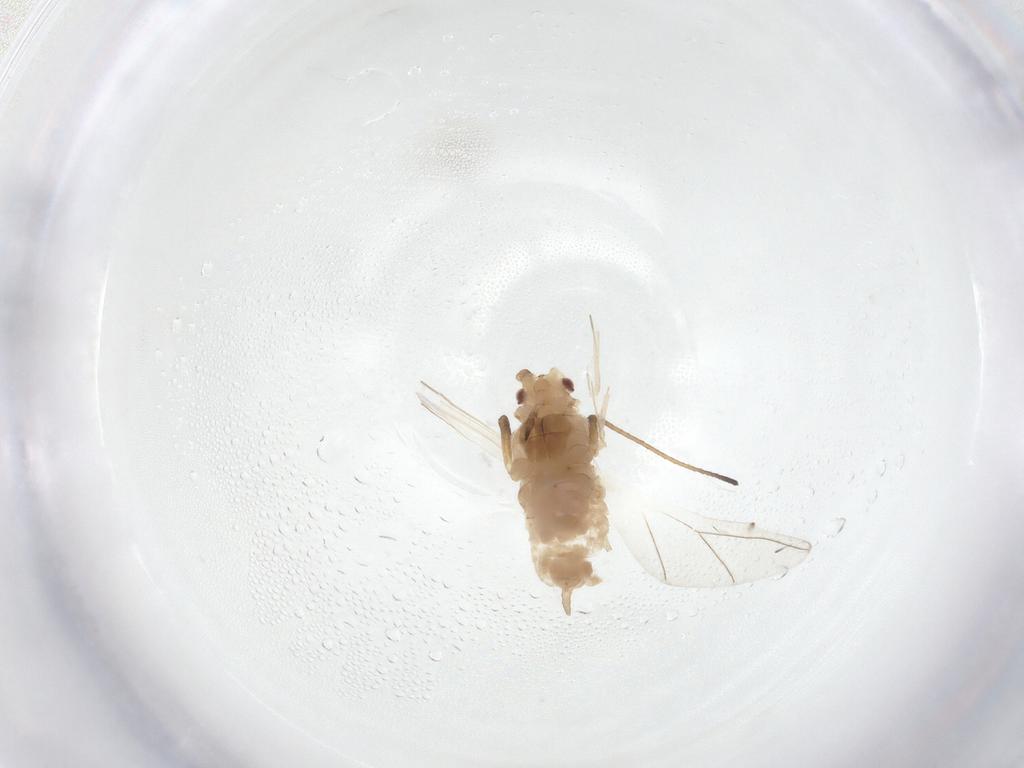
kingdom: Animalia
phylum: Arthropoda
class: Insecta
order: Hemiptera
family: Aphididae
